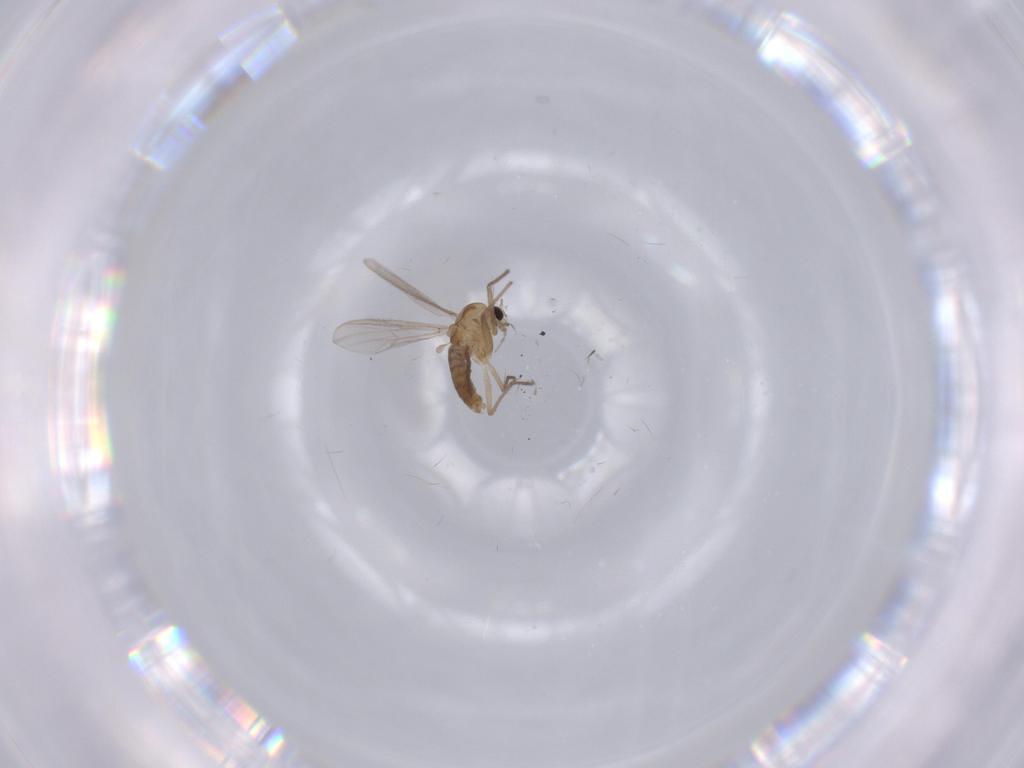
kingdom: Animalia
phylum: Arthropoda
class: Insecta
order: Diptera
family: Chironomidae
